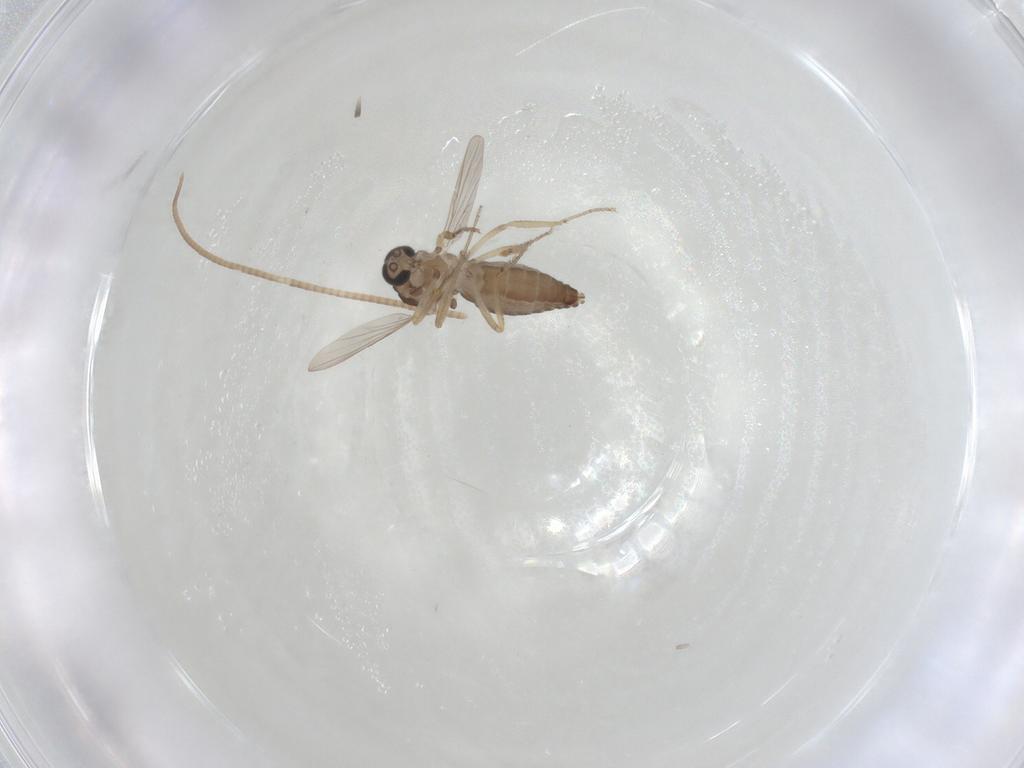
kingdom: Animalia
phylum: Arthropoda
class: Insecta
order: Diptera
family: Ceratopogonidae
